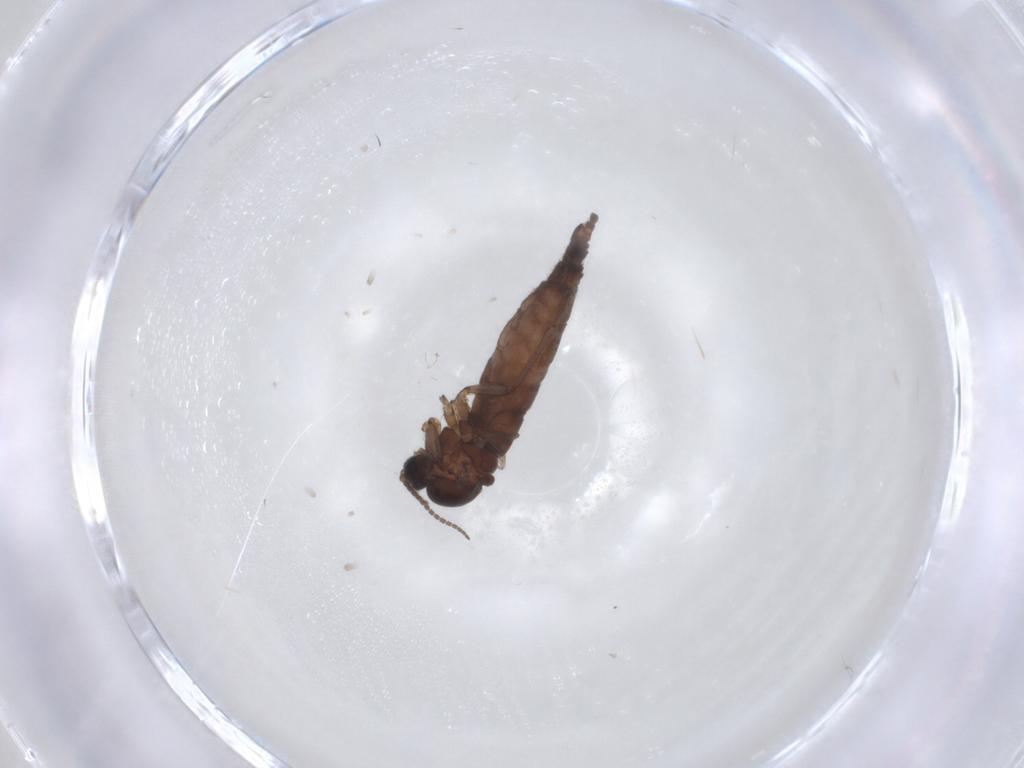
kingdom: Animalia
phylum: Arthropoda
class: Insecta
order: Diptera
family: Sciaridae
